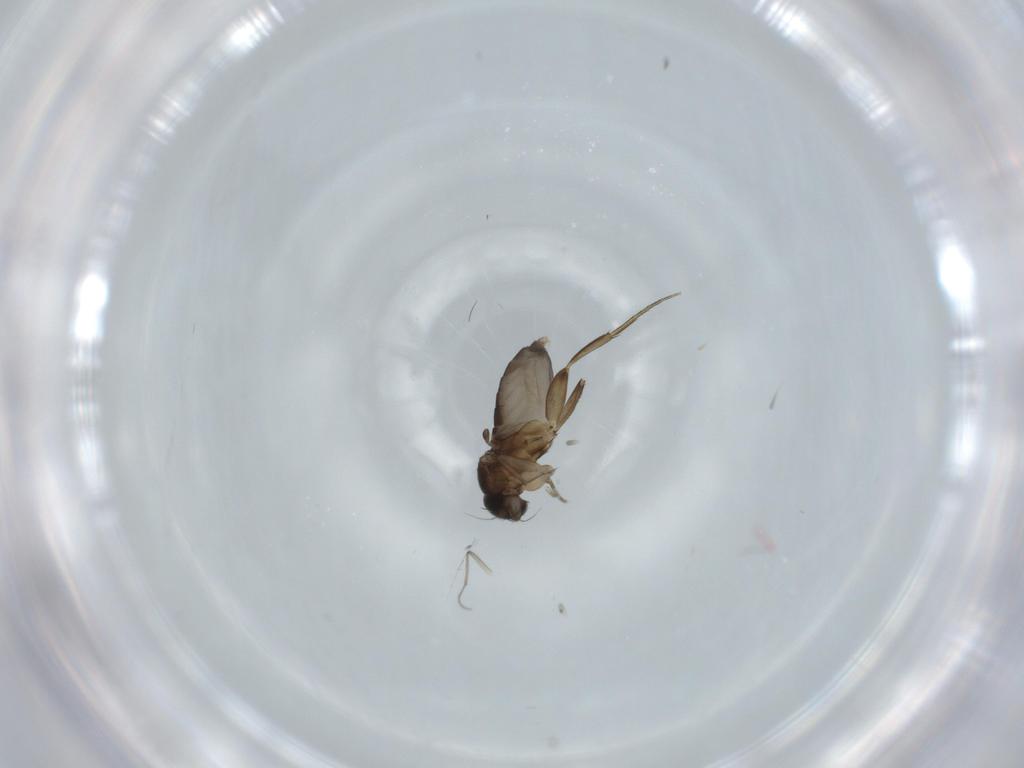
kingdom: Animalia
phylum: Arthropoda
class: Insecta
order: Diptera
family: Phoridae
